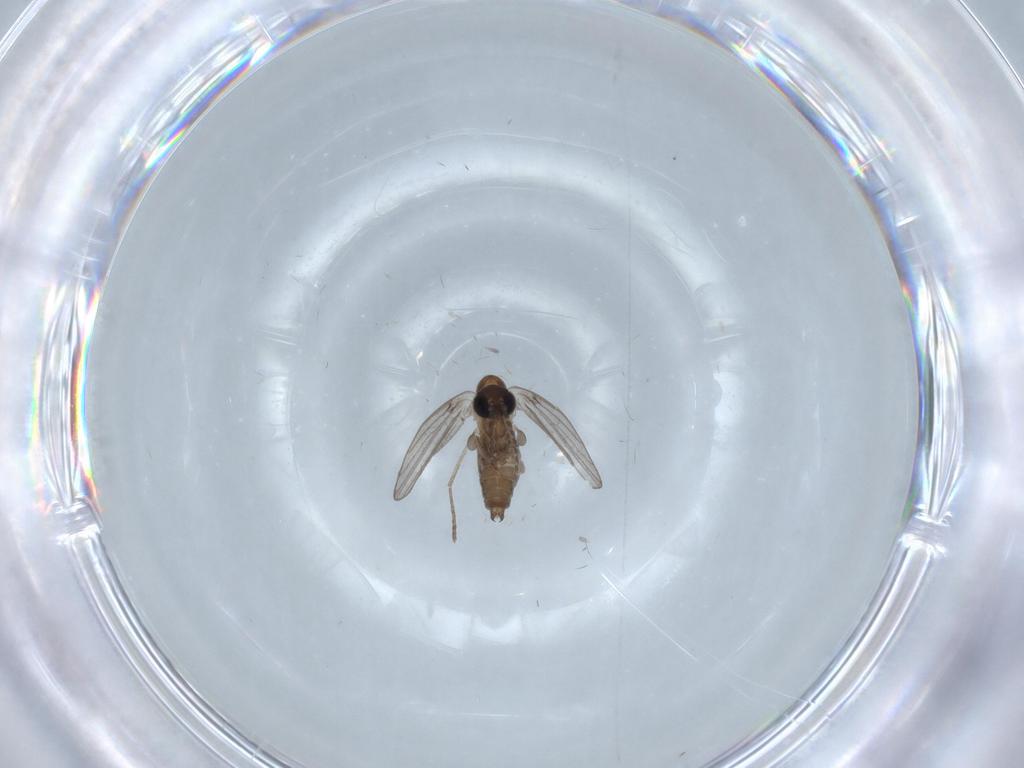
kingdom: Animalia
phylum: Arthropoda
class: Insecta
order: Diptera
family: Psychodidae
